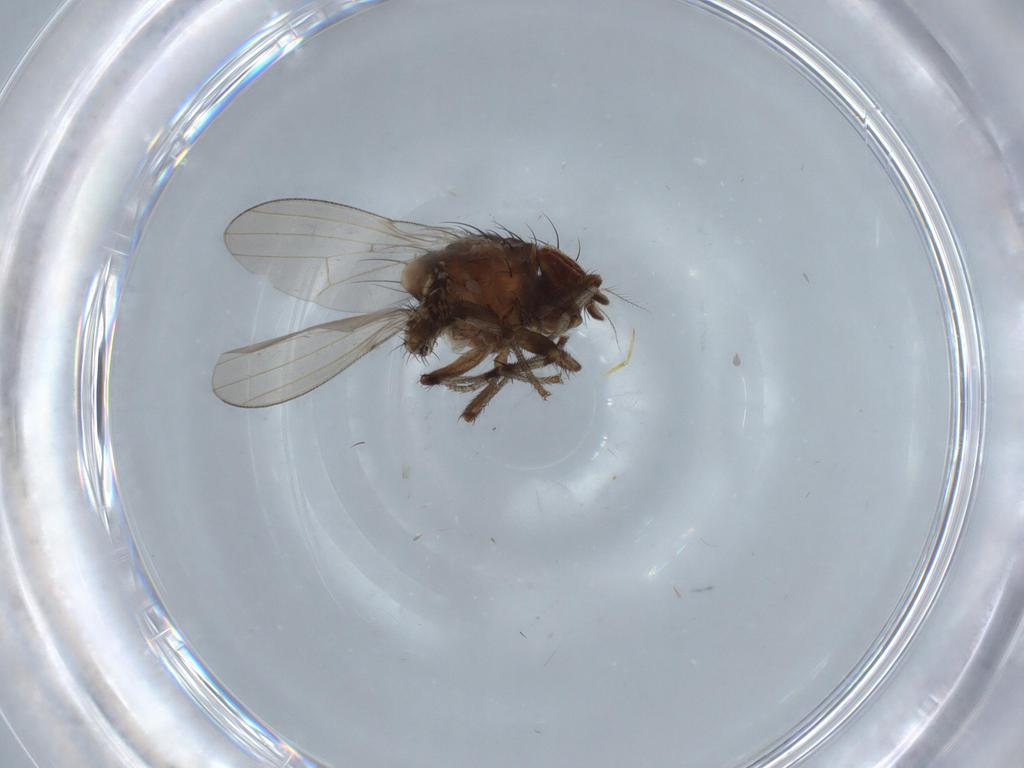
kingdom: Animalia
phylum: Arthropoda
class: Insecta
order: Diptera
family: Ceratopogonidae
